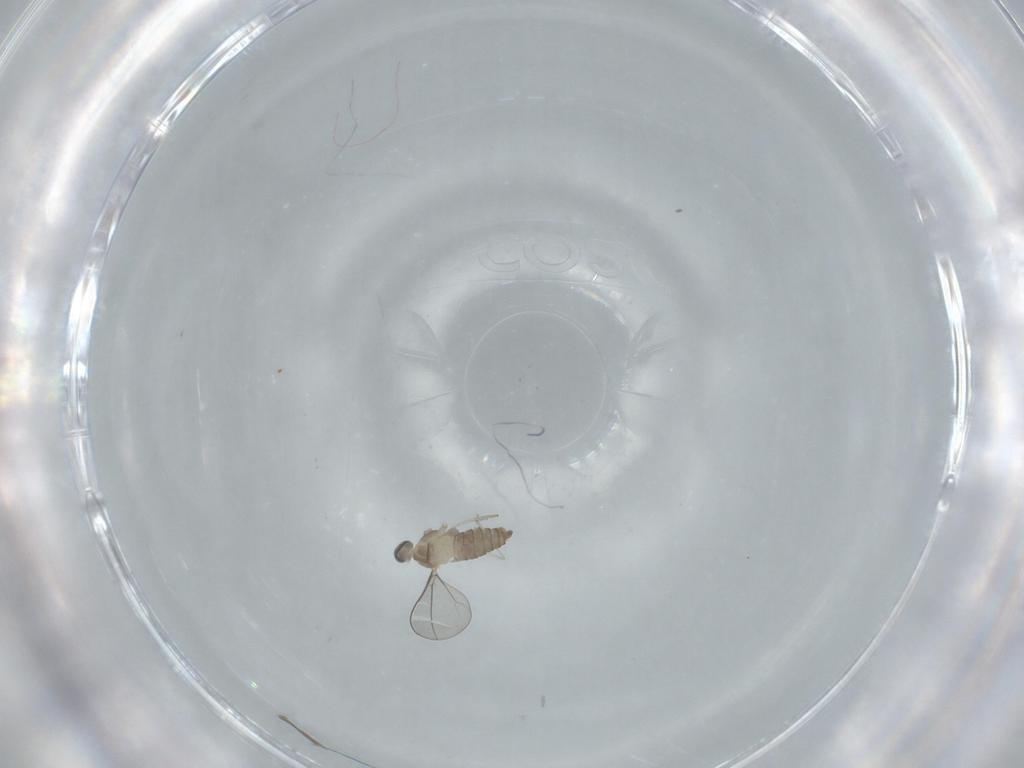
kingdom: Animalia
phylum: Arthropoda
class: Insecta
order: Diptera
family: Cecidomyiidae
